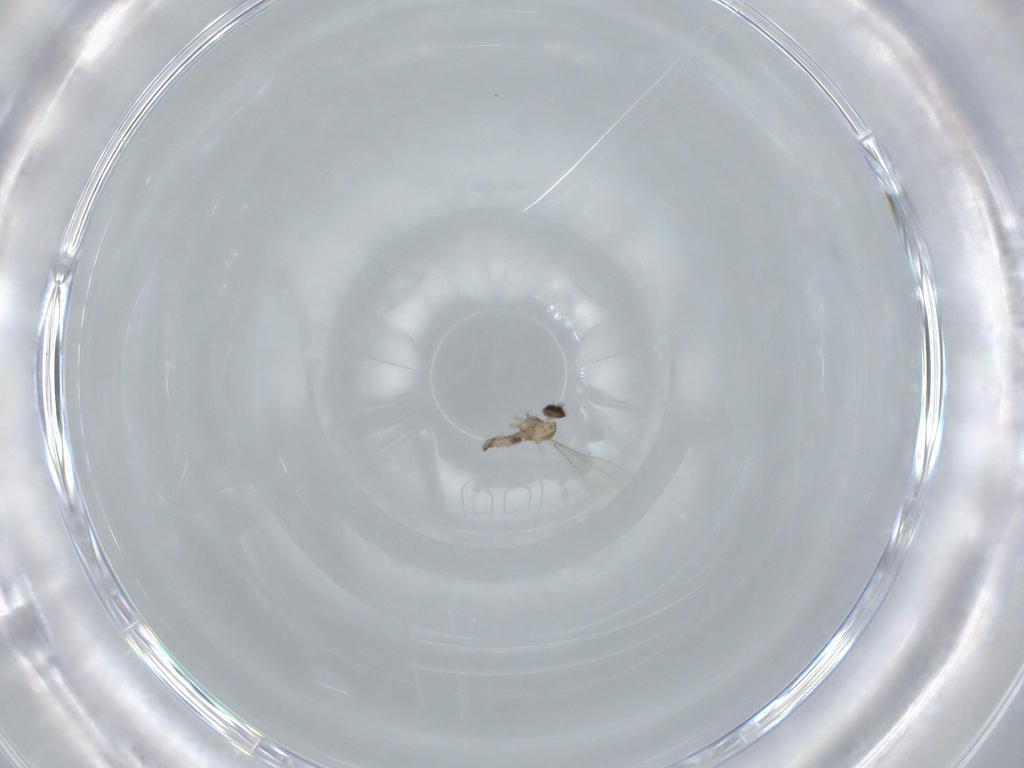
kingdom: Animalia
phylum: Arthropoda
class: Insecta
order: Diptera
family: Cecidomyiidae
